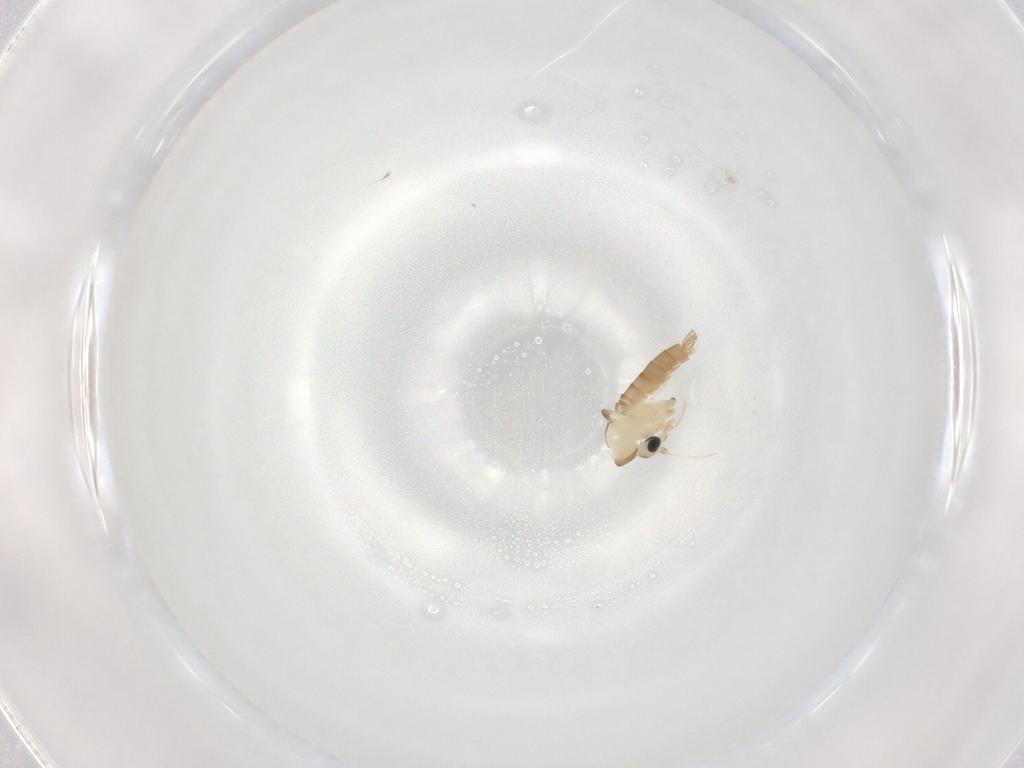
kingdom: Animalia
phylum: Arthropoda
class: Insecta
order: Diptera
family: Psychodidae
